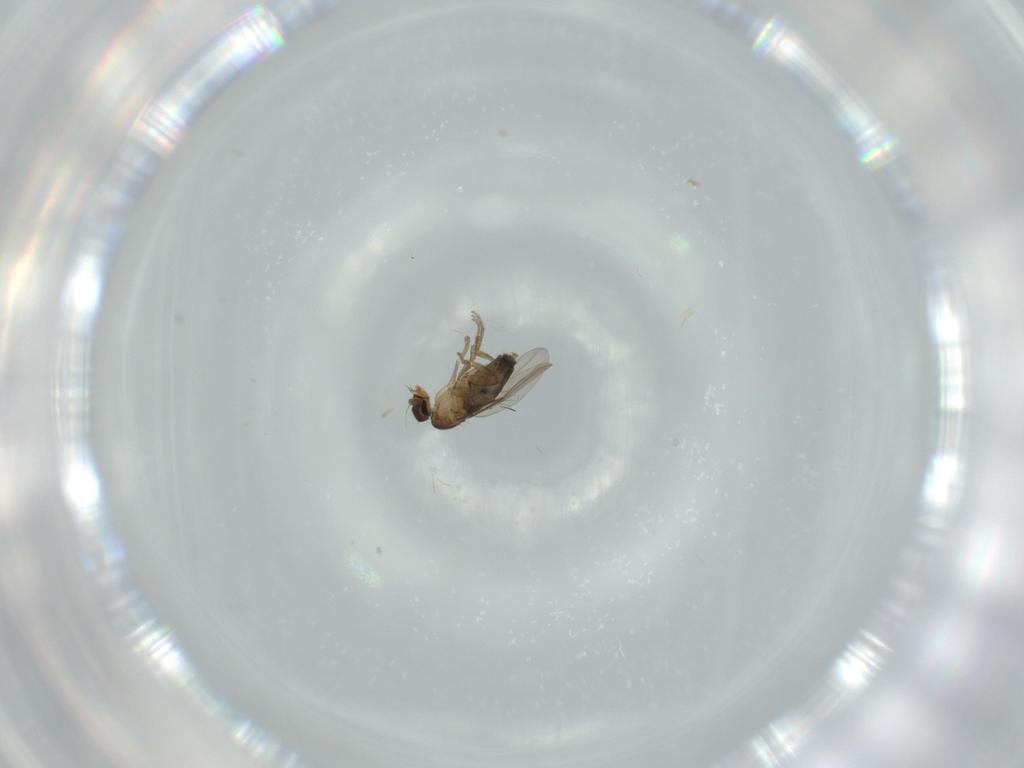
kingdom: Animalia
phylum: Arthropoda
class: Insecta
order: Diptera
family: Phoridae
